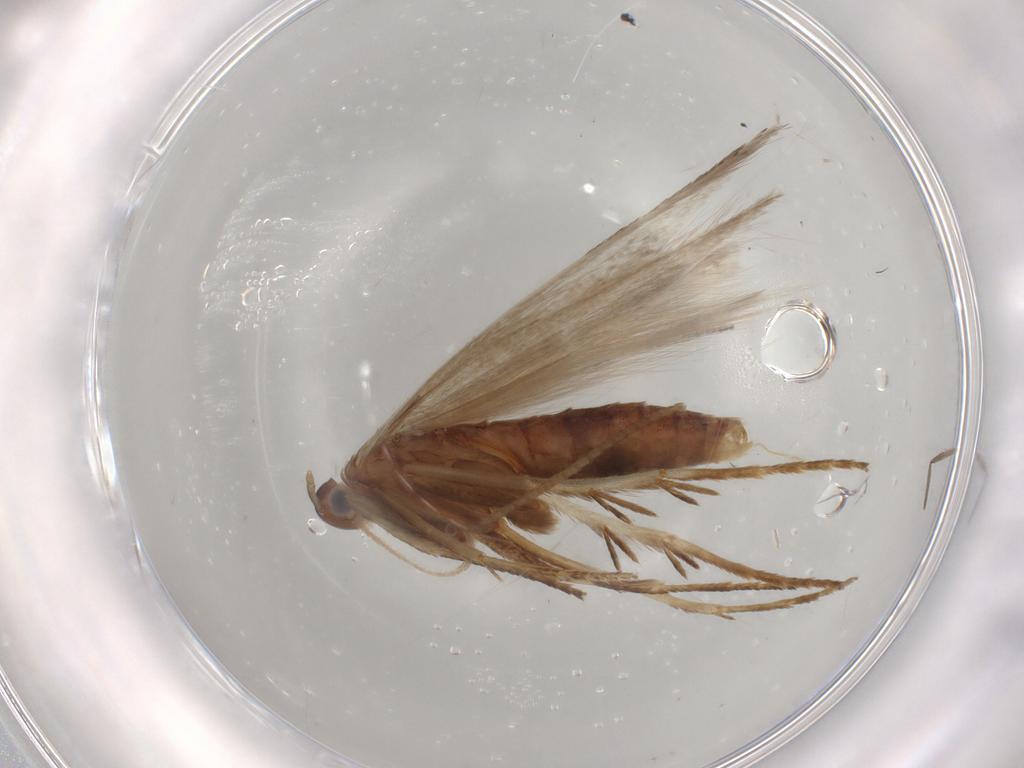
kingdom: Animalia
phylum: Arthropoda
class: Insecta
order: Lepidoptera
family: Erebidae
